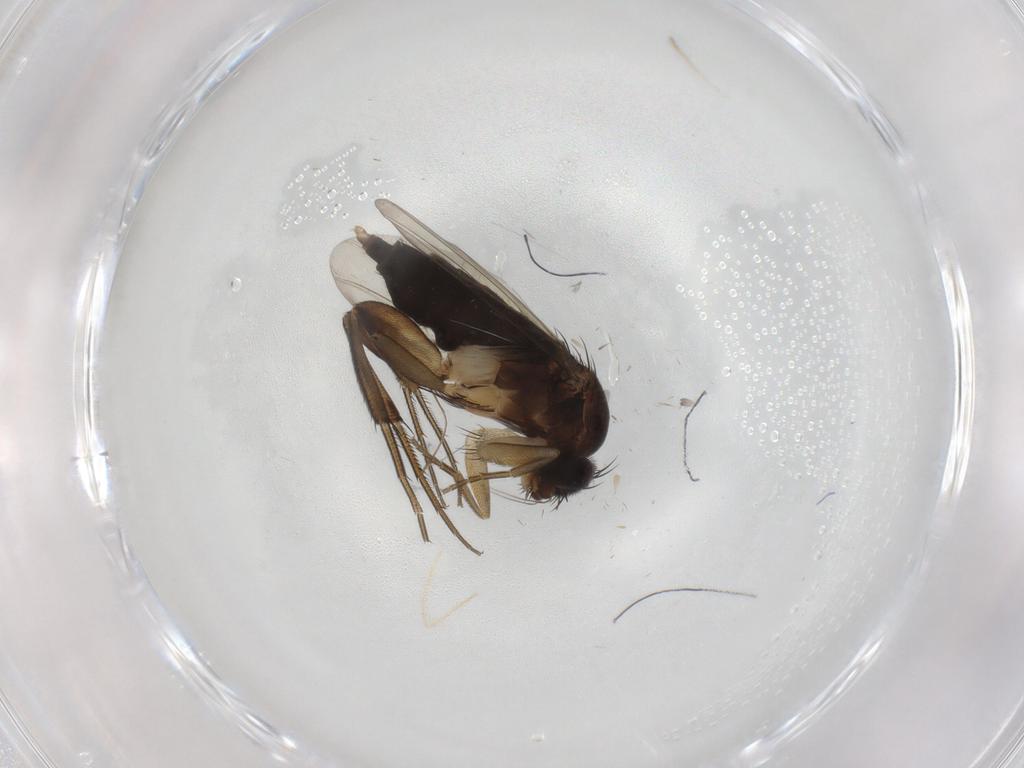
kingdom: Animalia
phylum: Arthropoda
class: Insecta
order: Diptera
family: Phoridae
